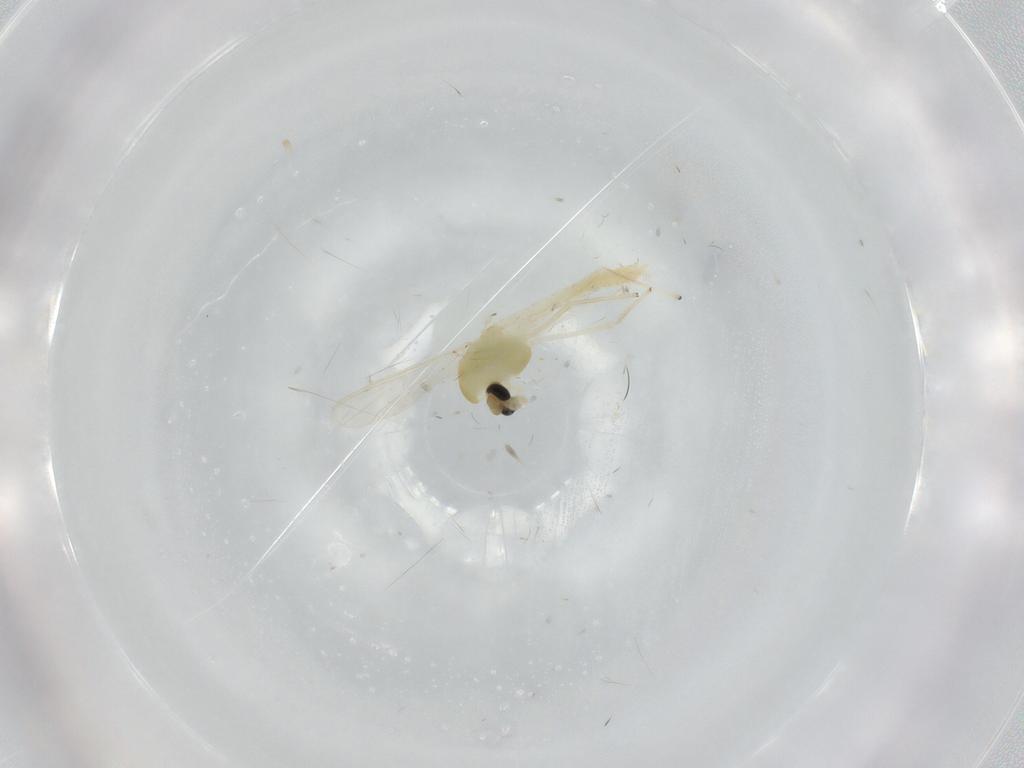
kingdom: Animalia
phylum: Arthropoda
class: Insecta
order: Diptera
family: Chironomidae
